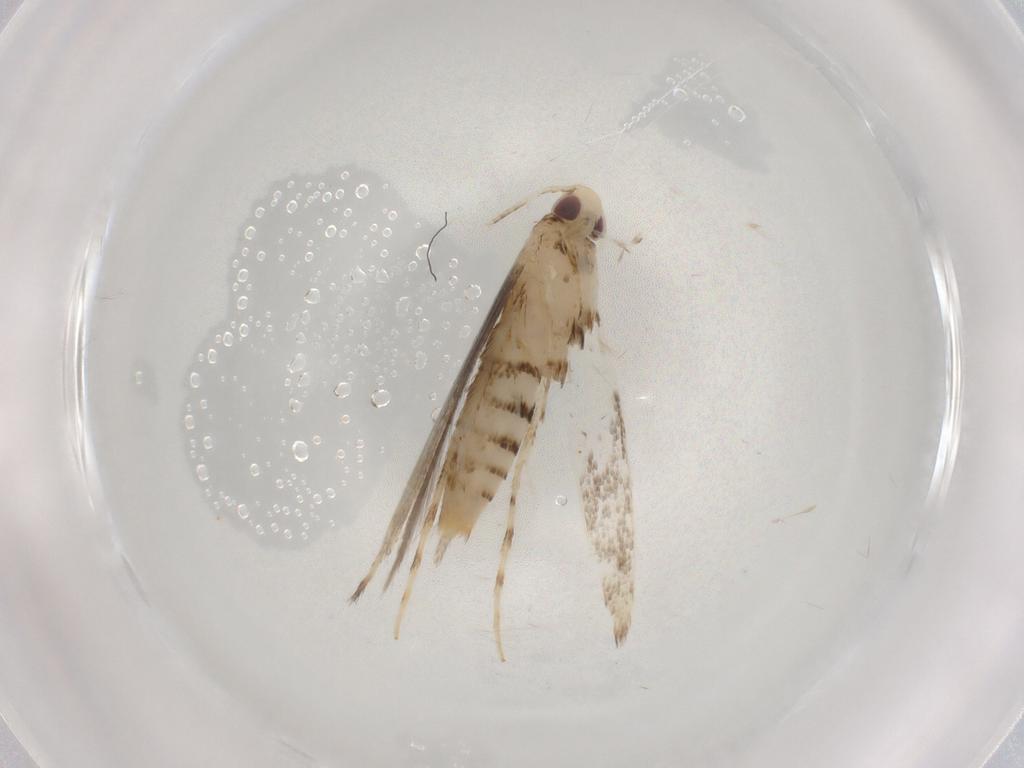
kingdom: Animalia
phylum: Arthropoda
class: Insecta
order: Lepidoptera
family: Gracillariidae
